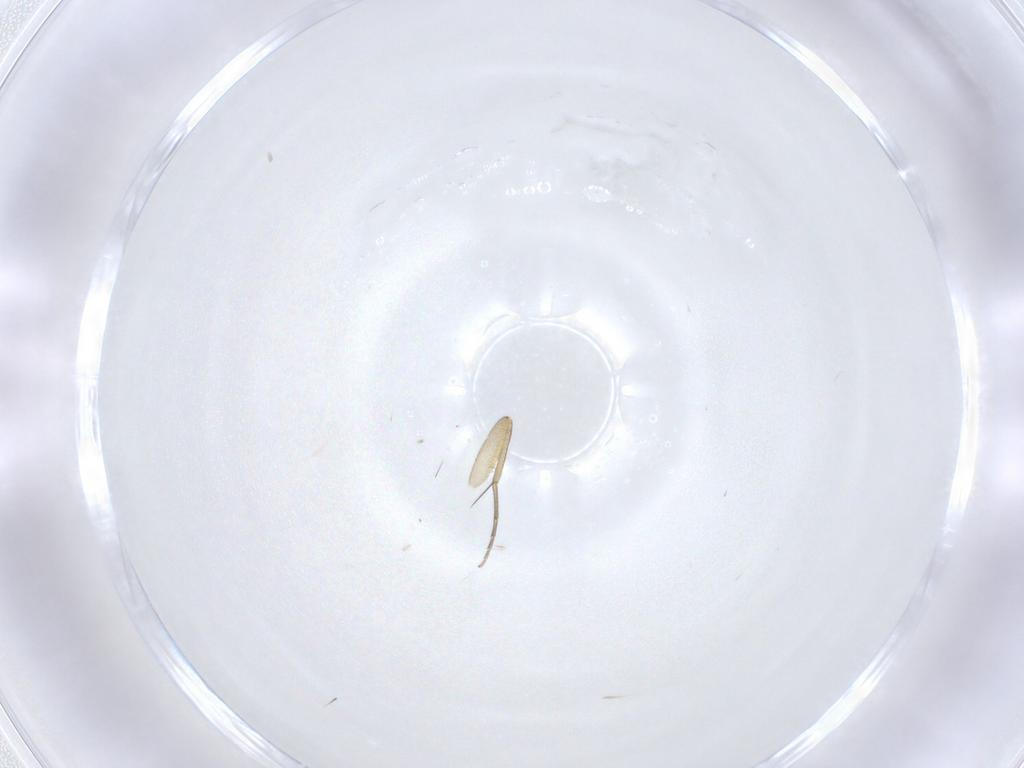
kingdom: Animalia
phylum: Arthropoda
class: Insecta
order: Diptera
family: Phoridae
